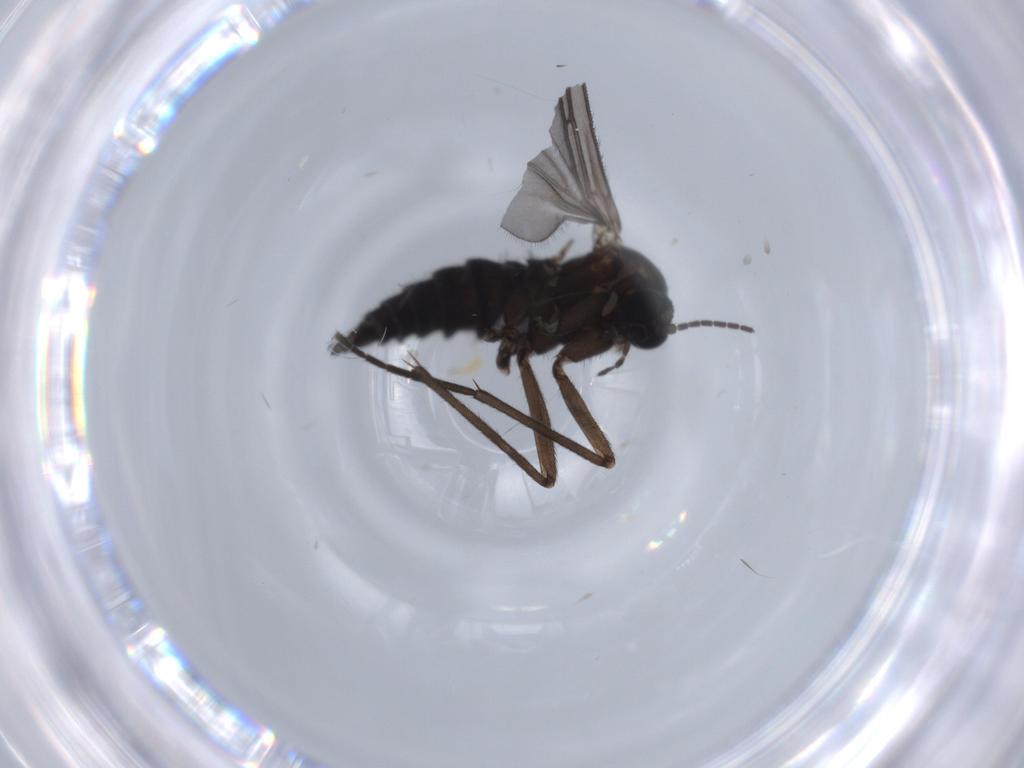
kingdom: Animalia
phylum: Arthropoda
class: Insecta
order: Diptera
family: Sciaridae
